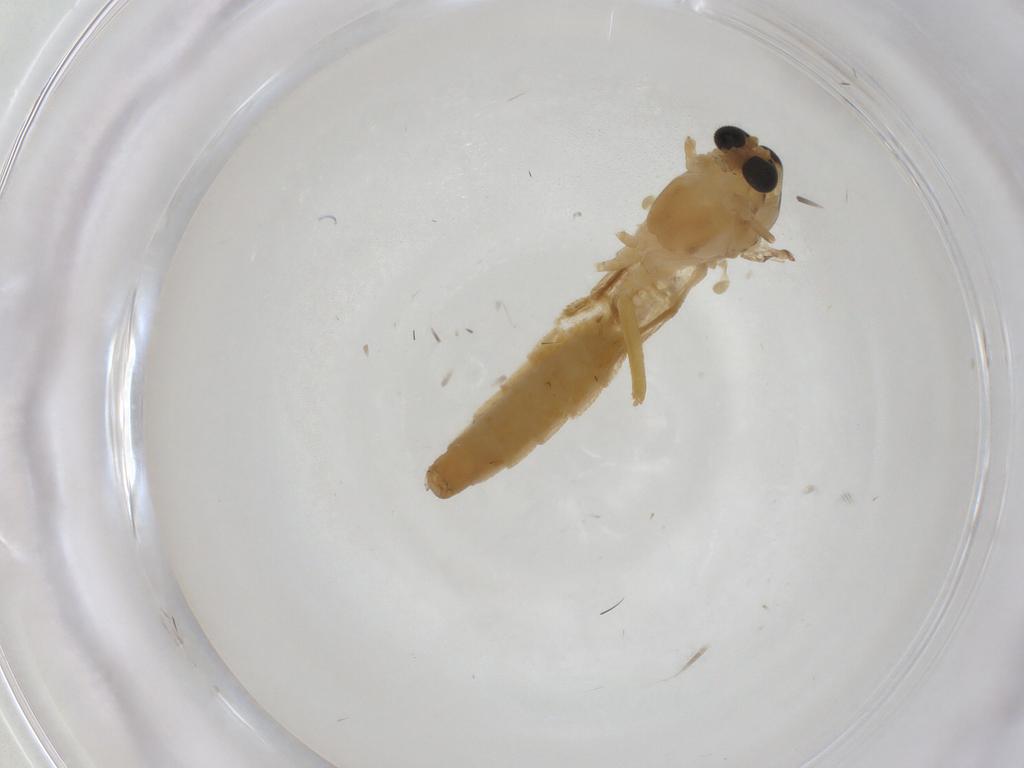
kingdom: Animalia
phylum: Arthropoda
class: Insecta
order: Diptera
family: Chironomidae
